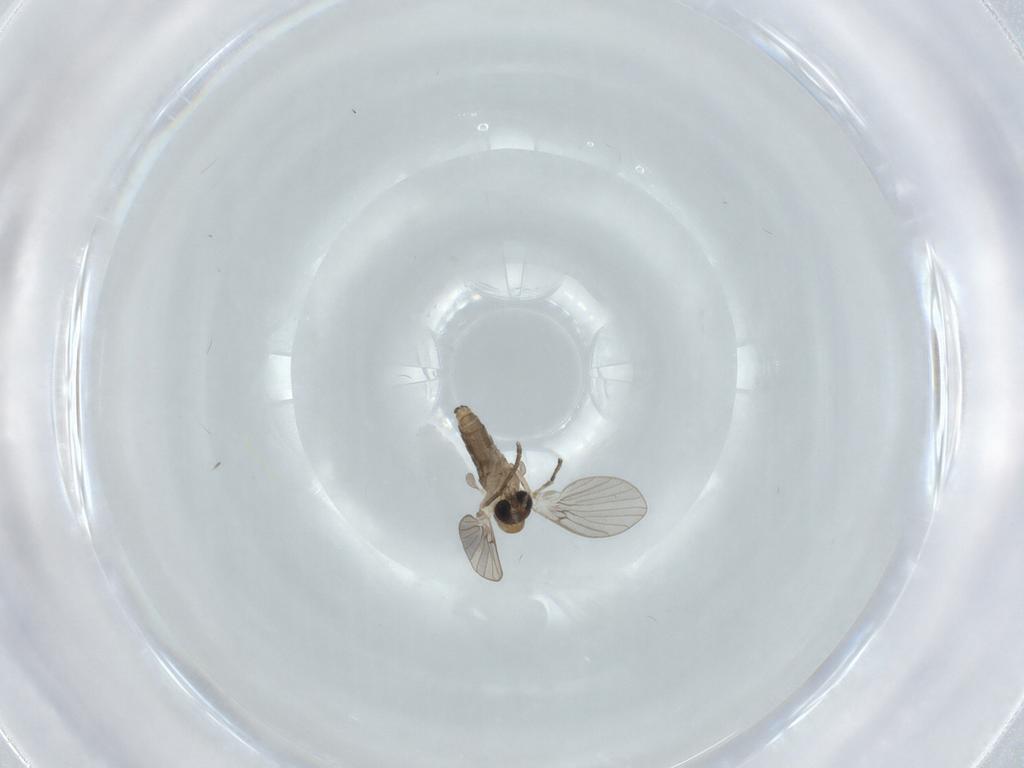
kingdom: Animalia
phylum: Arthropoda
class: Insecta
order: Diptera
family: Psychodidae
